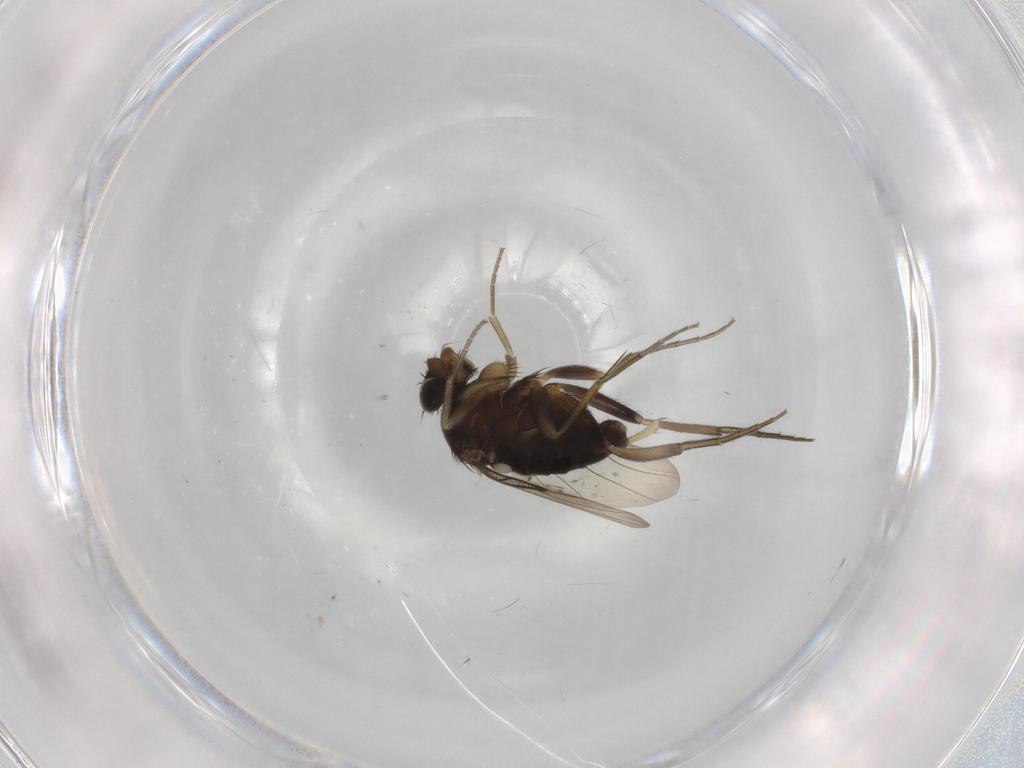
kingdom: Animalia
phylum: Arthropoda
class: Insecta
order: Diptera
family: Phoridae
